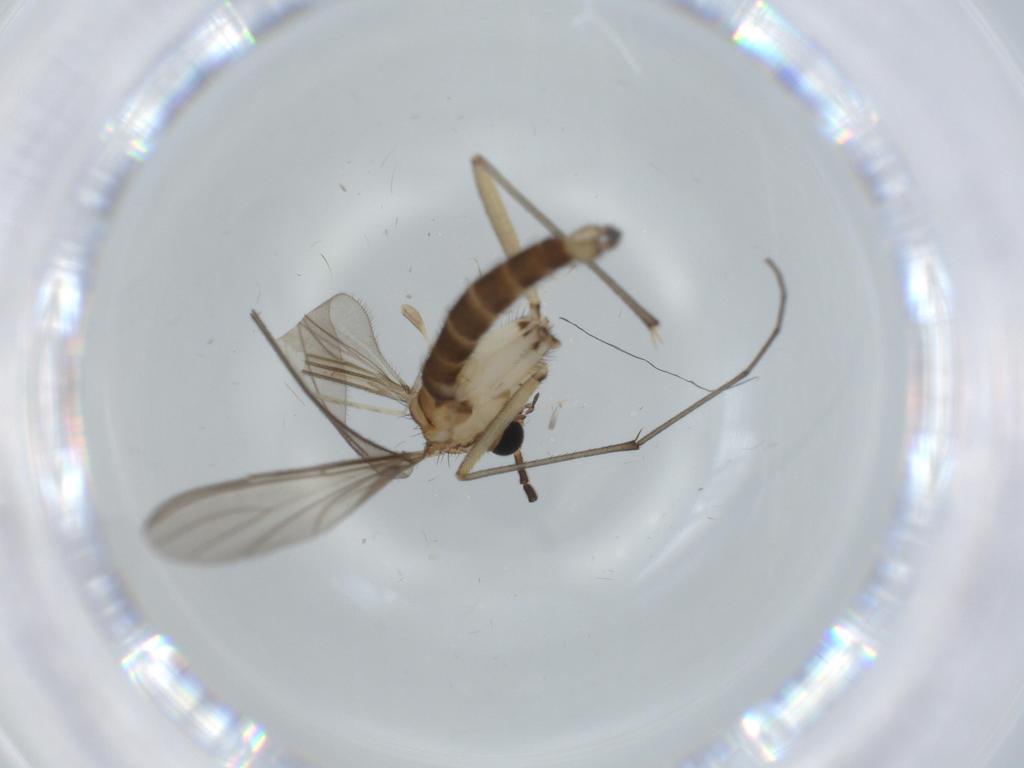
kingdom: Animalia
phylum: Arthropoda
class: Insecta
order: Diptera
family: Sciaridae
